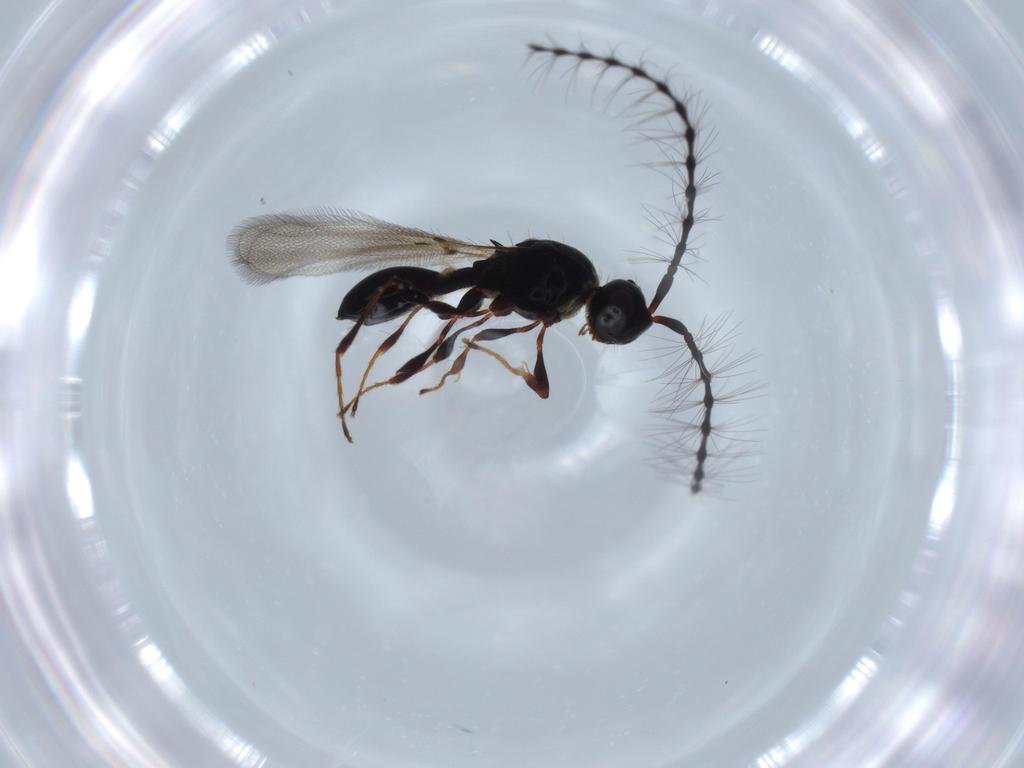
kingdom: Animalia
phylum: Arthropoda
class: Insecta
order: Hymenoptera
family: Diapriidae
